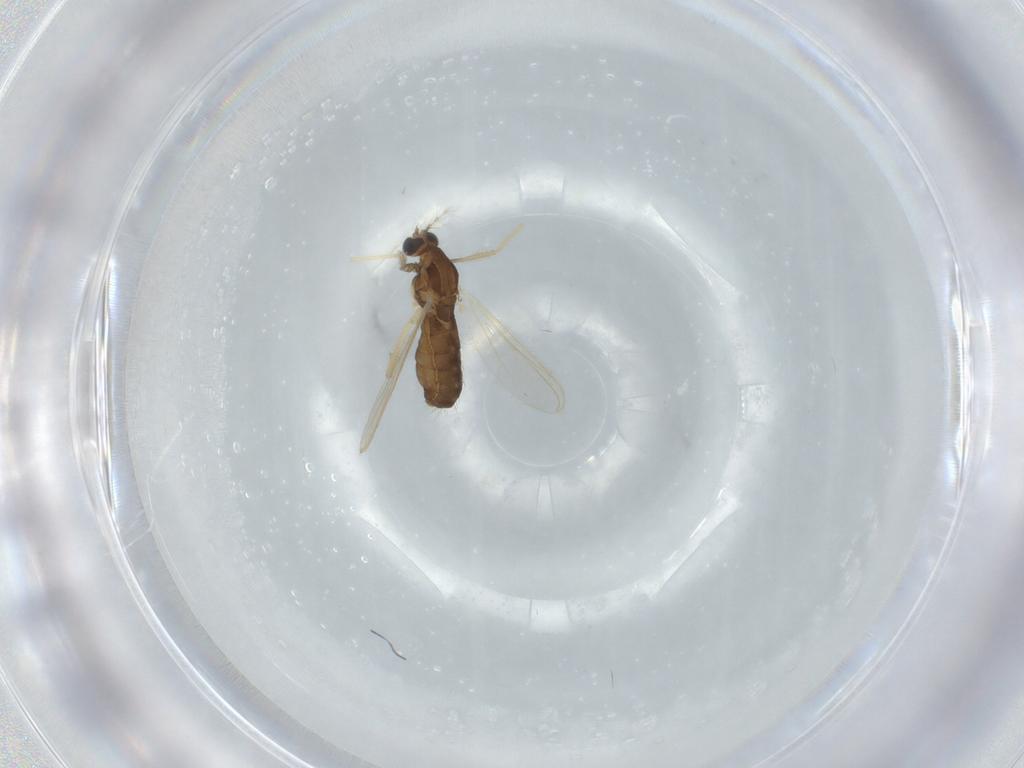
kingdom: Animalia
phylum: Arthropoda
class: Insecta
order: Diptera
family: Chironomidae
